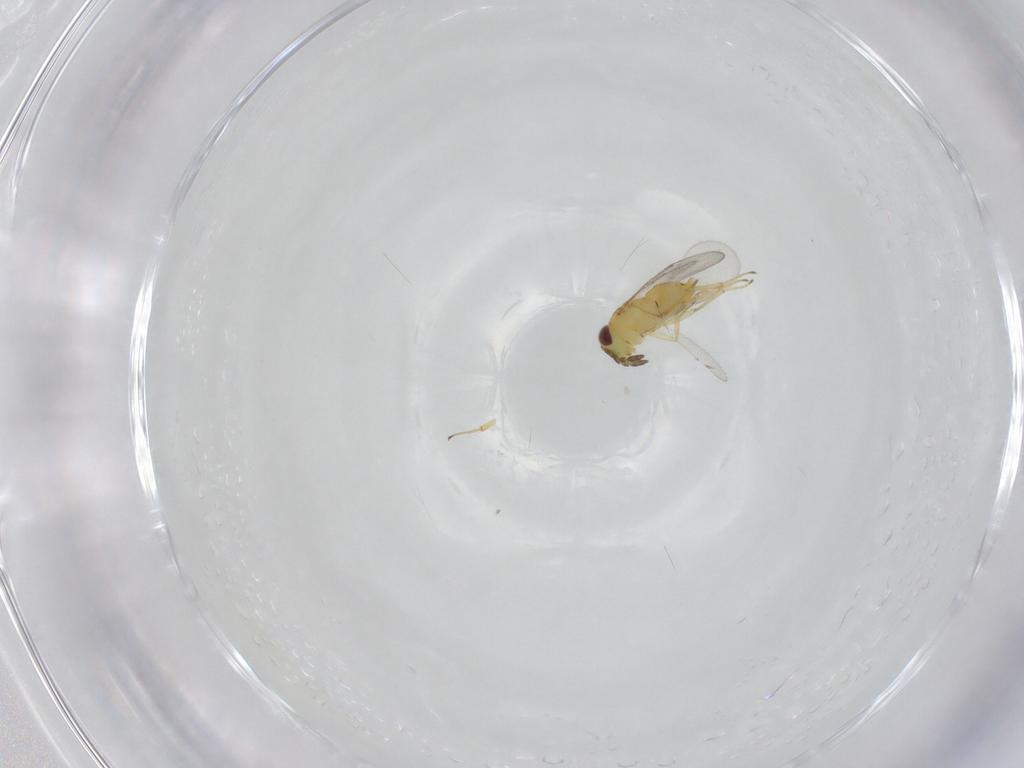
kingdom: Animalia
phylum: Arthropoda
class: Insecta
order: Hymenoptera
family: Aphelinidae
